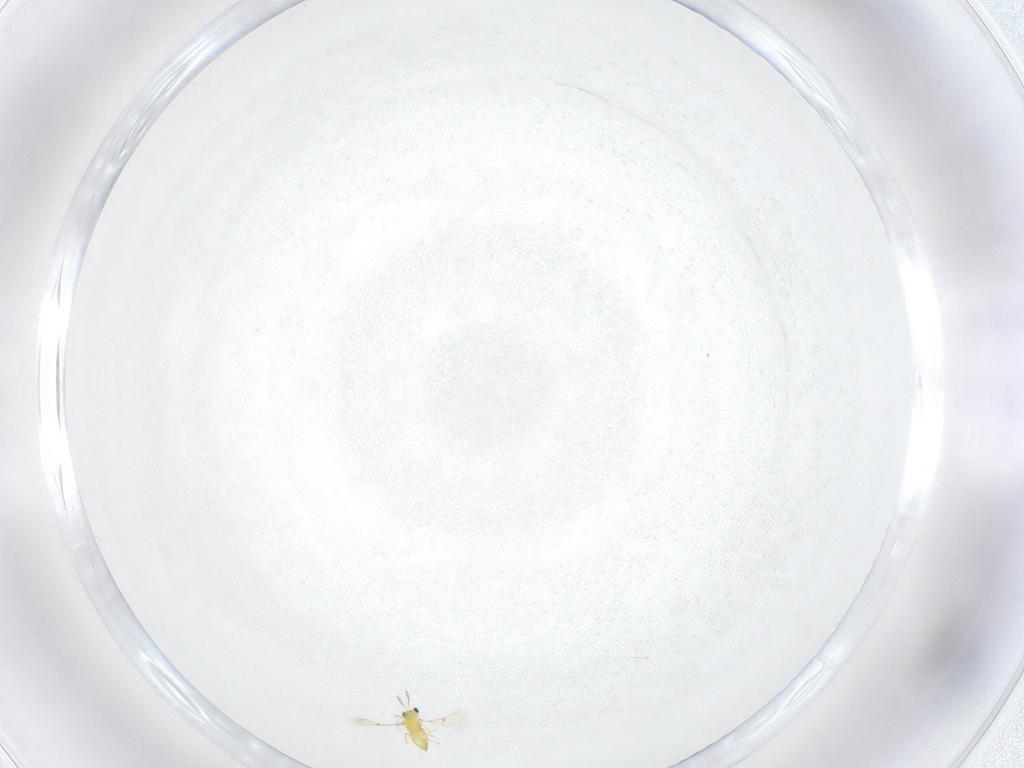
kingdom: Animalia
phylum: Arthropoda
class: Insecta
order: Hymenoptera
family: Trichogrammatidae
